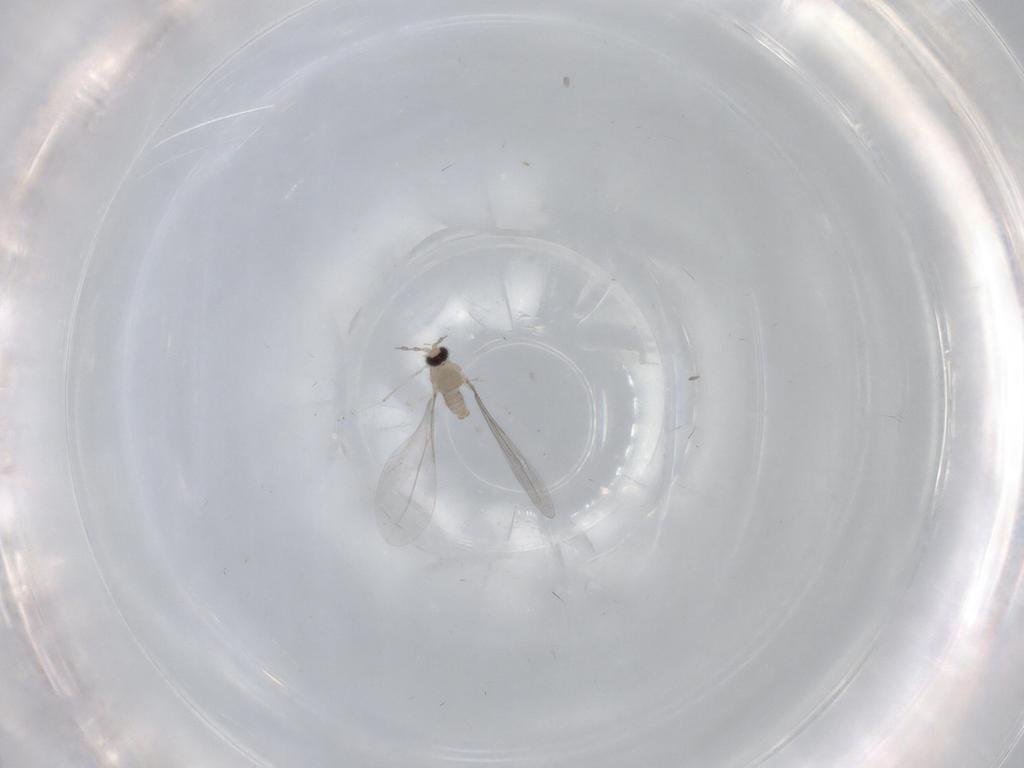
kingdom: Animalia
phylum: Arthropoda
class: Insecta
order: Diptera
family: Cecidomyiidae
